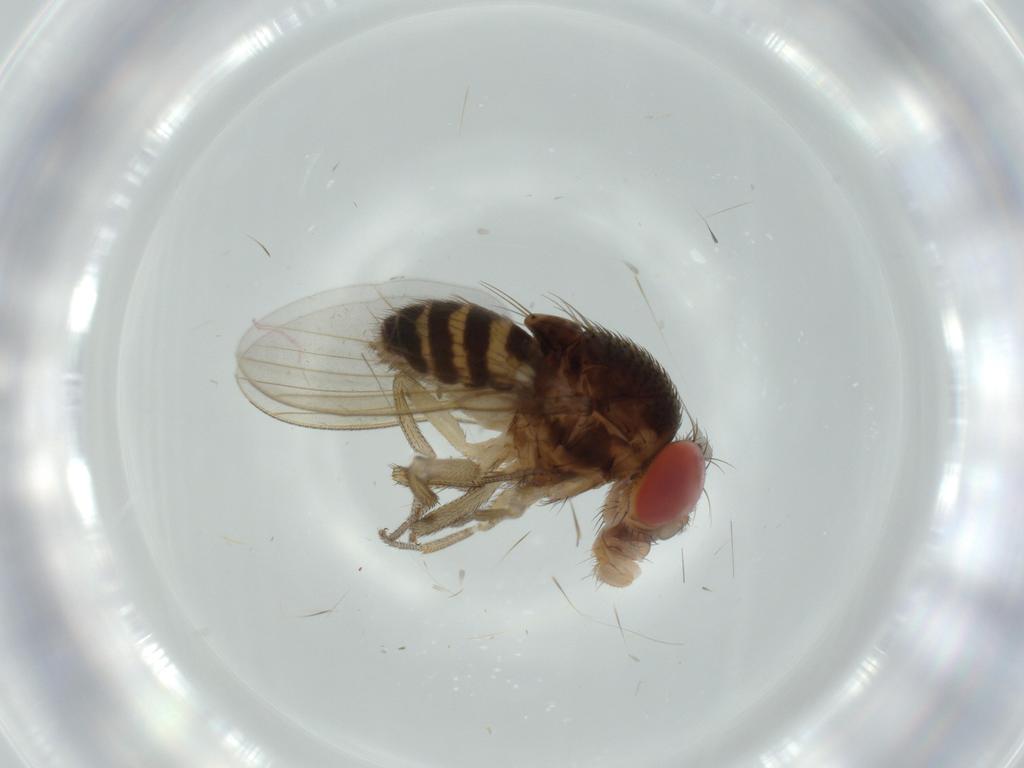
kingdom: Animalia
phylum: Arthropoda
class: Insecta
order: Diptera
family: Drosophilidae
